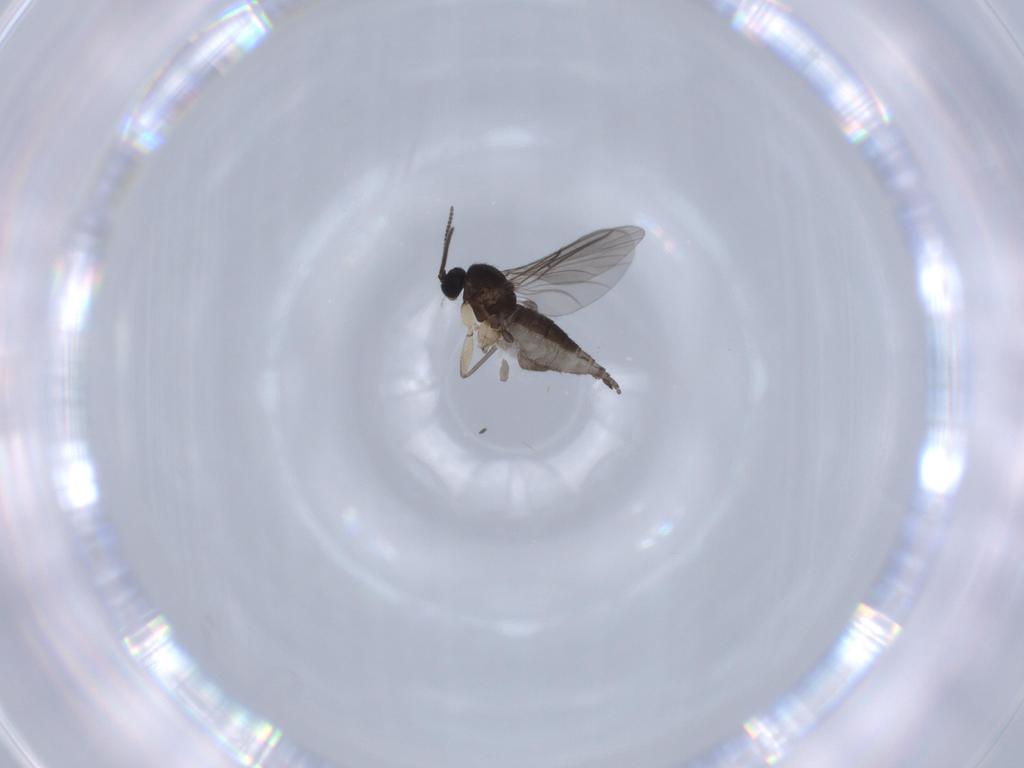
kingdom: Animalia
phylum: Arthropoda
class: Insecta
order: Diptera
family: Sciaridae
